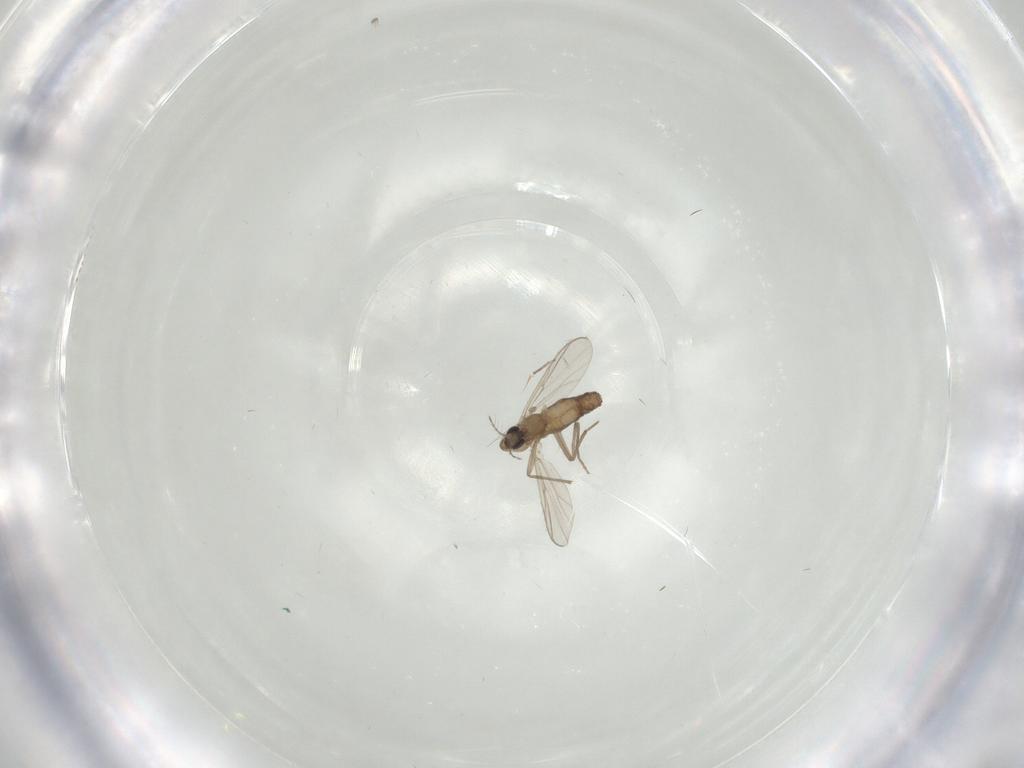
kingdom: Animalia
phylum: Arthropoda
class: Insecta
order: Diptera
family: Chironomidae
